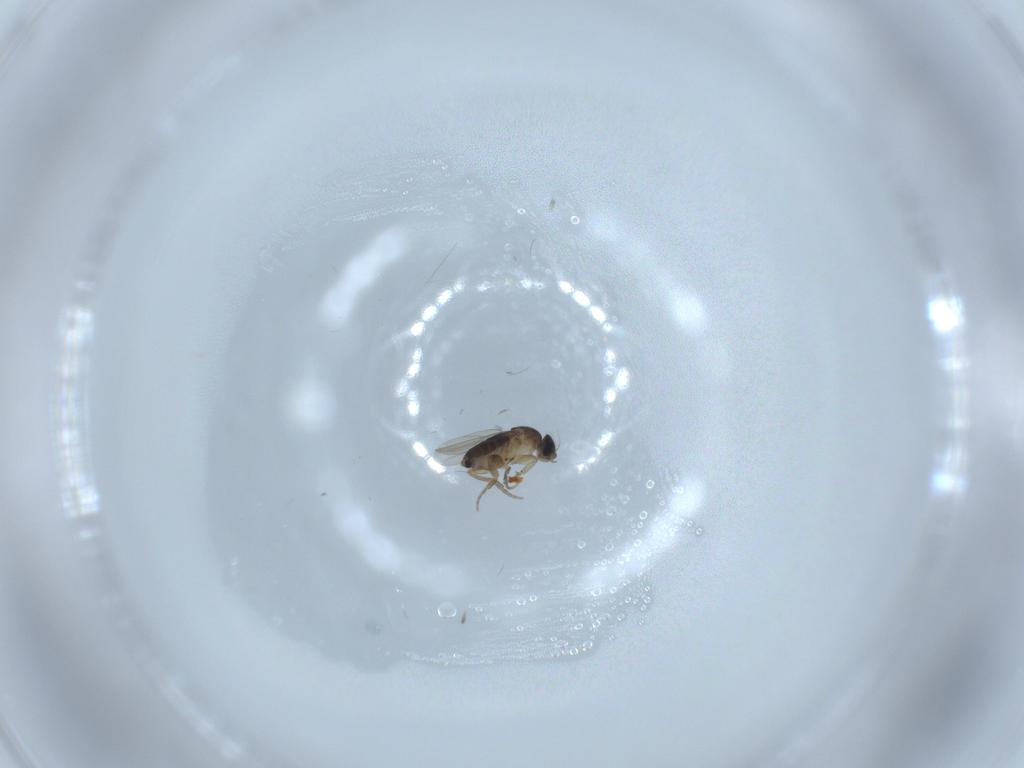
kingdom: Animalia
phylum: Arthropoda
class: Insecta
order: Diptera
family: Phoridae
